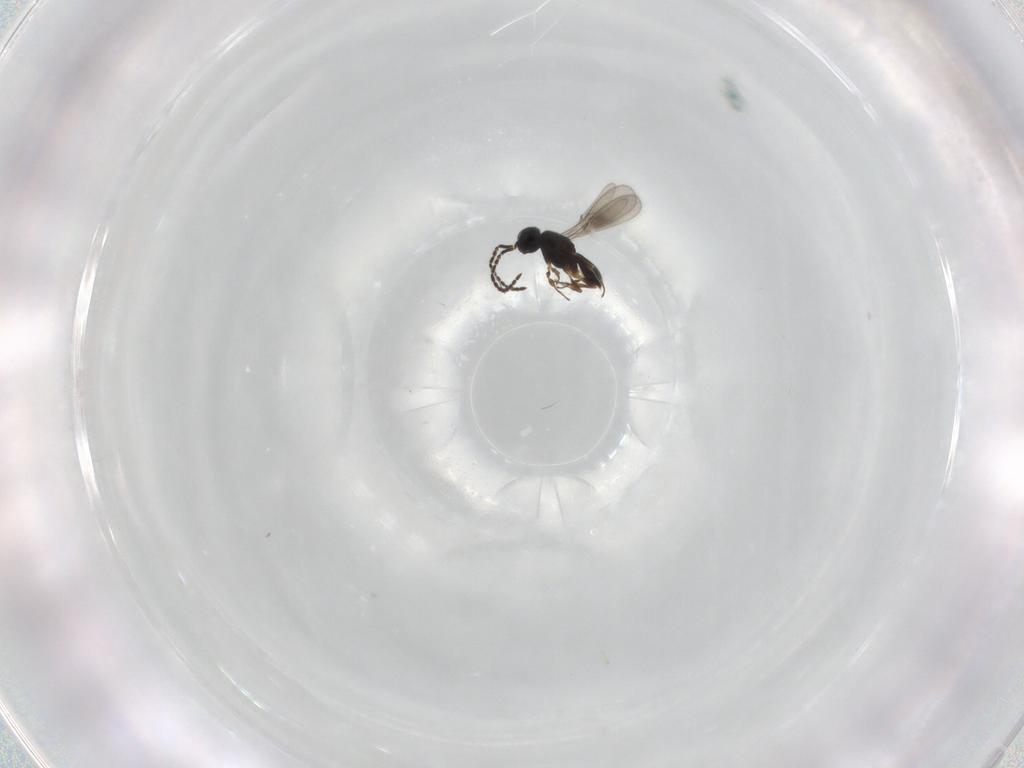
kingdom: Animalia
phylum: Arthropoda
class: Insecta
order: Hymenoptera
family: Scelionidae
